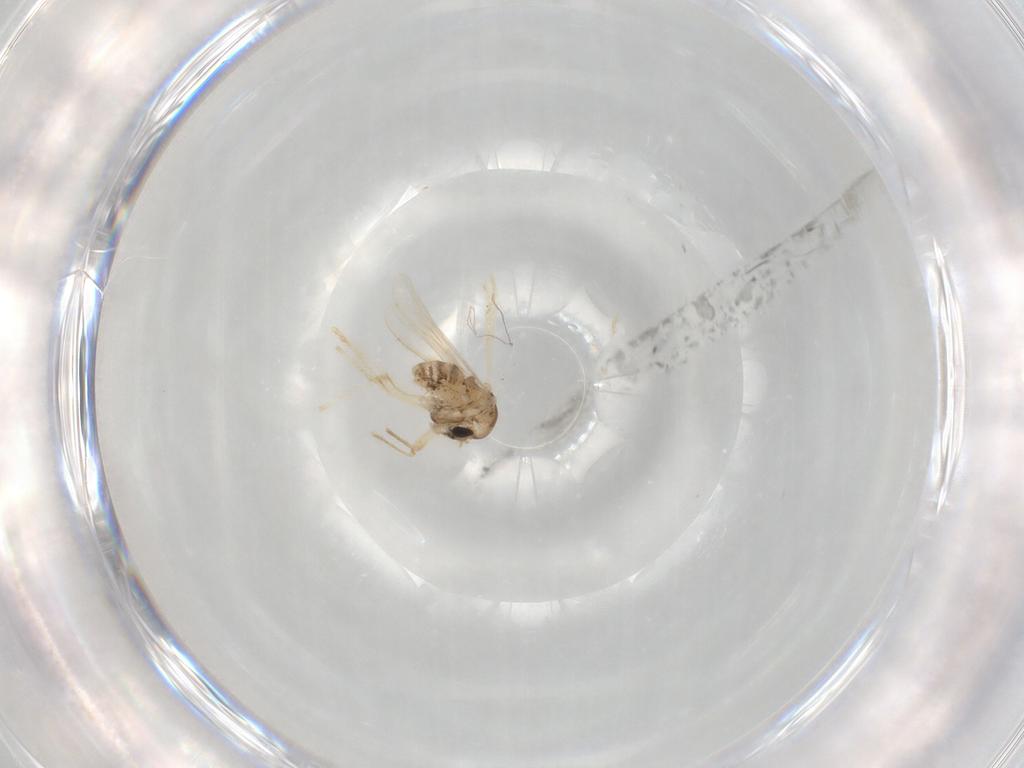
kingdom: Animalia
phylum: Arthropoda
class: Insecta
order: Diptera
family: Chironomidae
